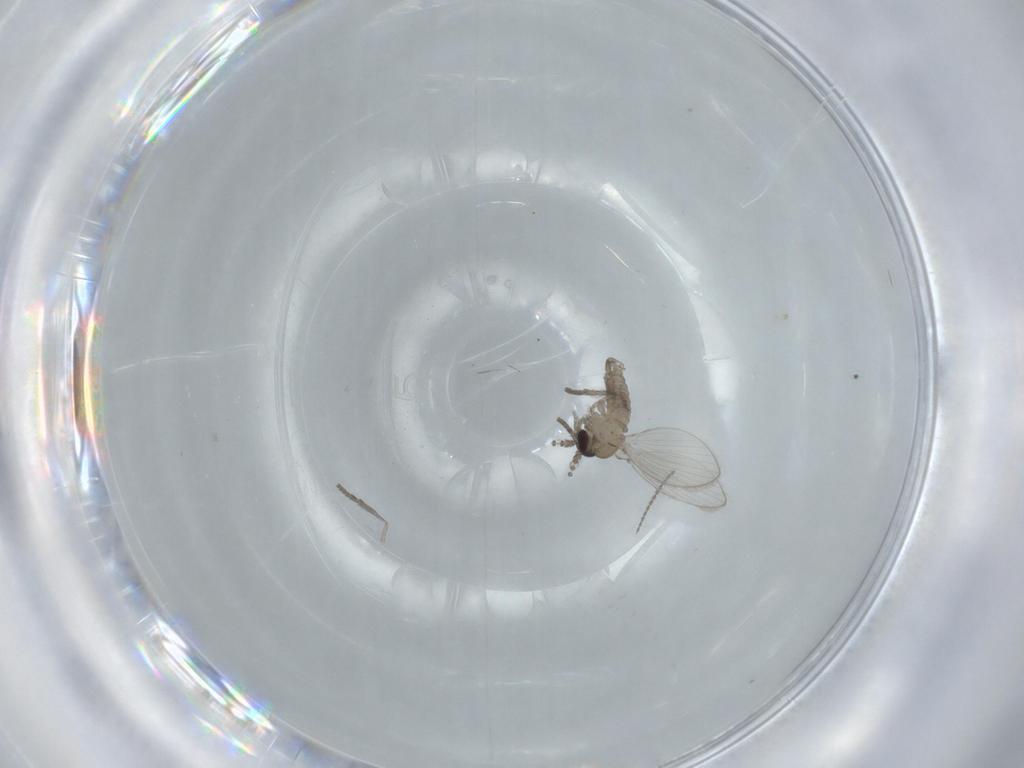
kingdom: Animalia
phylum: Arthropoda
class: Insecta
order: Diptera
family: Psychodidae
